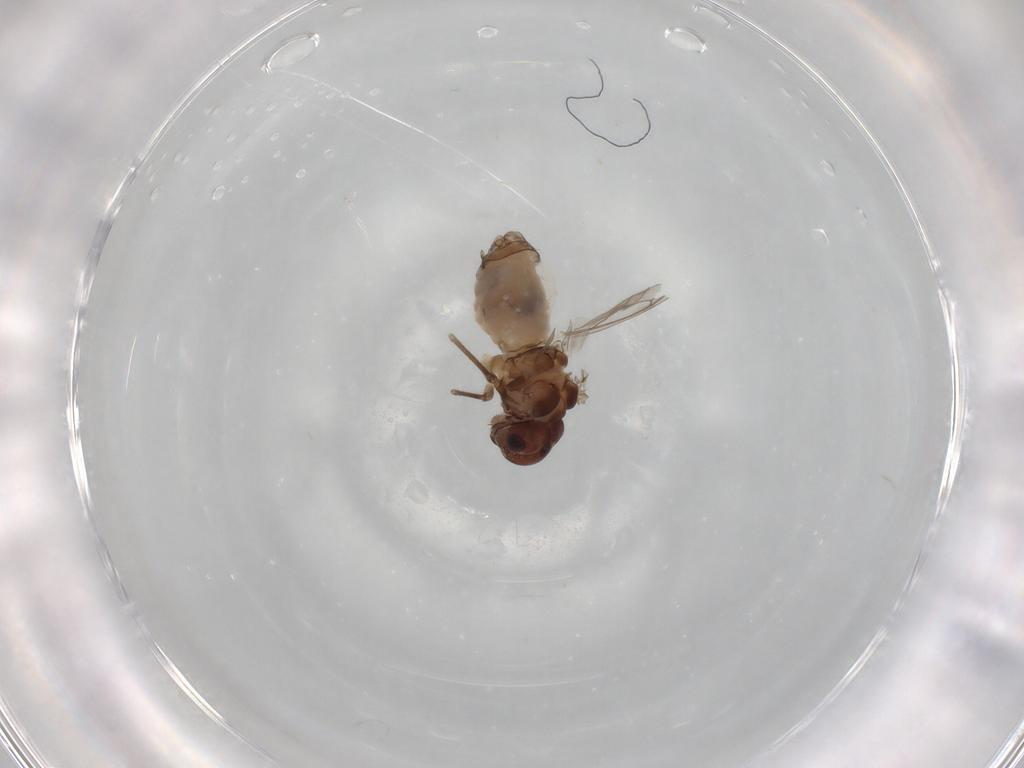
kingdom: Animalia
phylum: Arthropoda
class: Insecta
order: Psocodea
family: Peripsocidae
